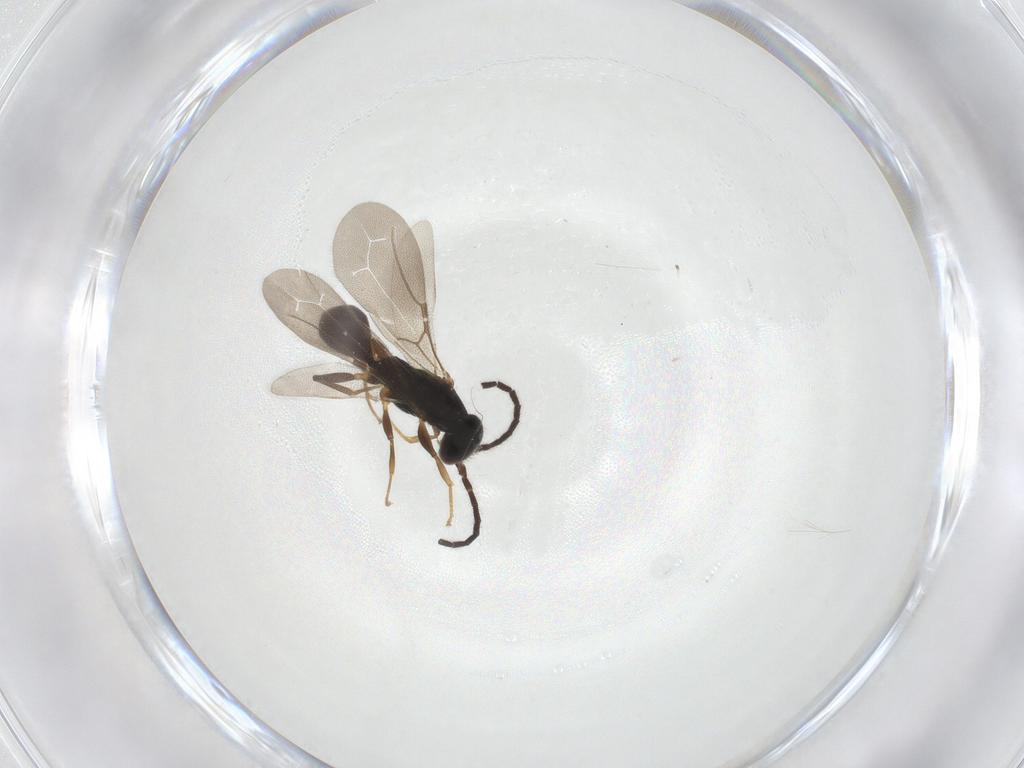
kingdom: Animalia
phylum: Arthropoda
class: Insecta
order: Hymenoptera
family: Bethylidae
